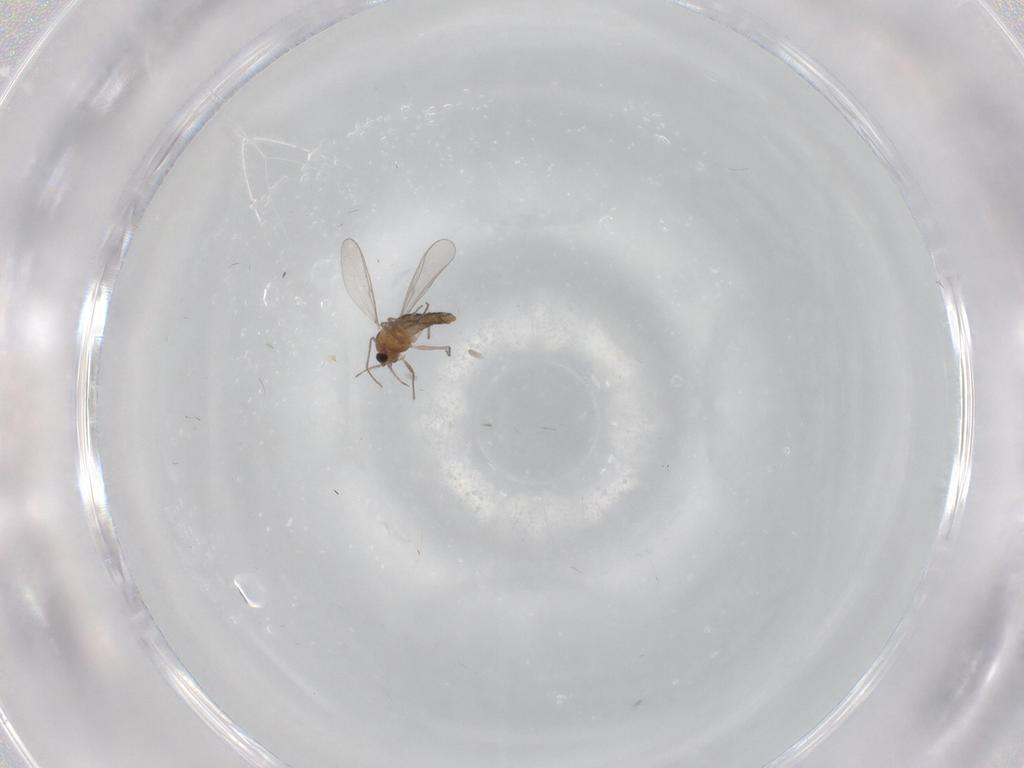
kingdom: Animalia
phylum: Arthropoda
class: Insecta
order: Diptera
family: Chironomidae
